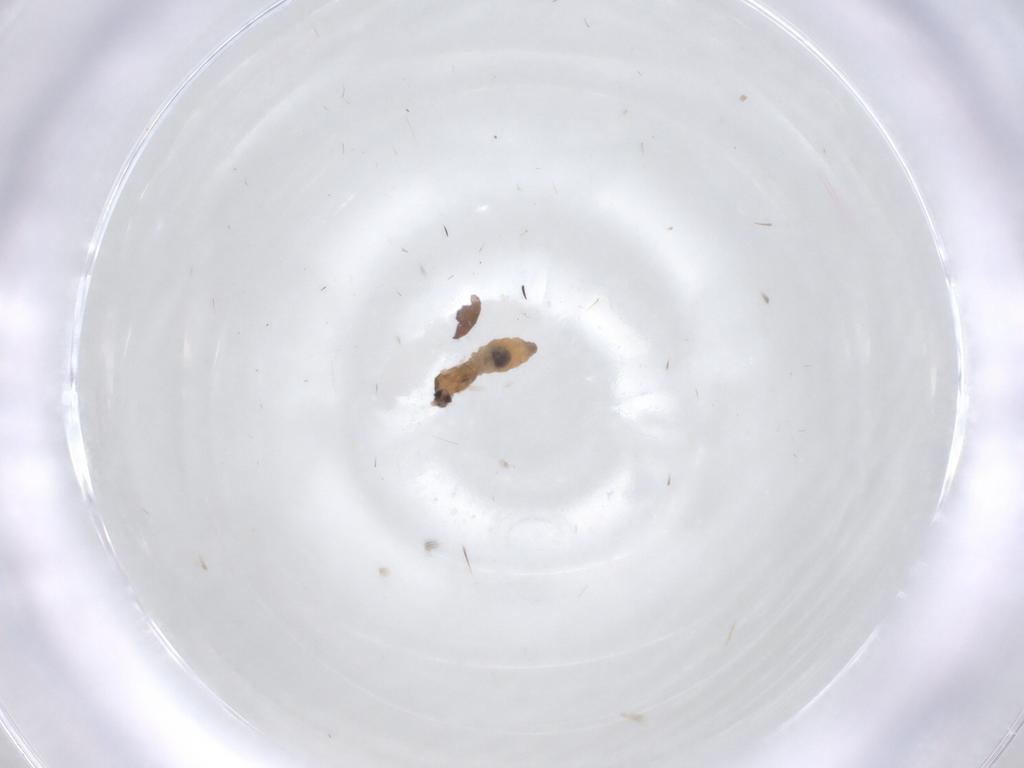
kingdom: Animalia
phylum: Arthropoda
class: Insecta
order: Diptera
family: Cecidomyiidae
